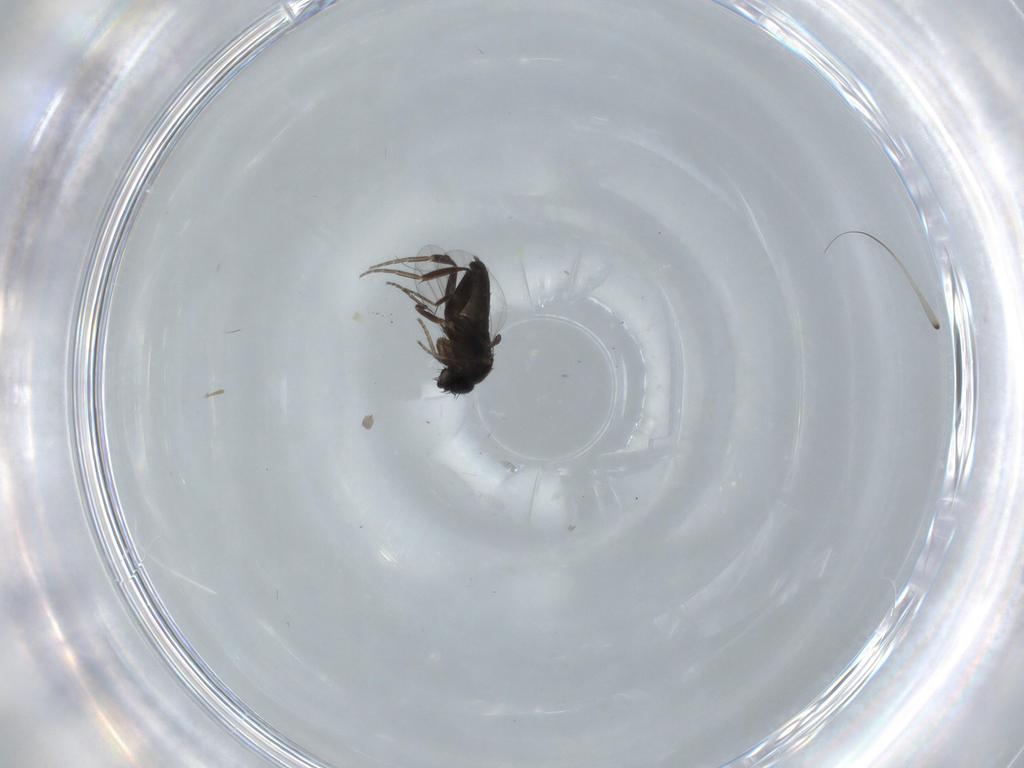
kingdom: Animalia
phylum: Arthropoda
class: Insecta
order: Diptera
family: Phoridae
